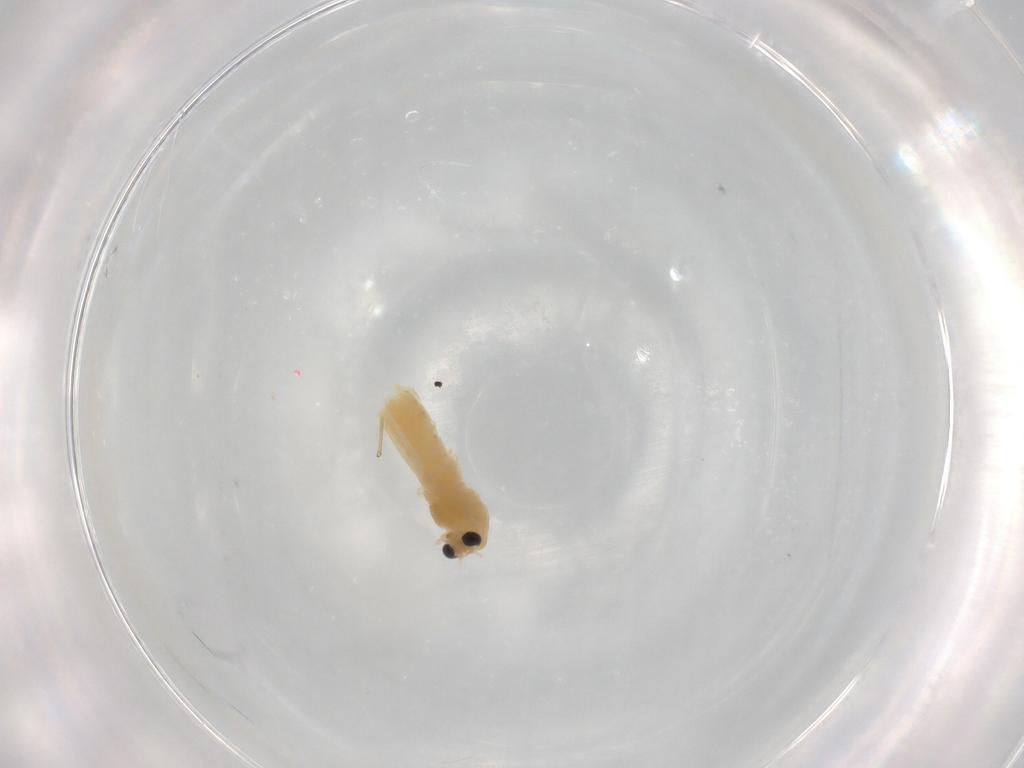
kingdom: Animalia
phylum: Arthropoda
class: Insecta
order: Diptera
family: Chironomidae
